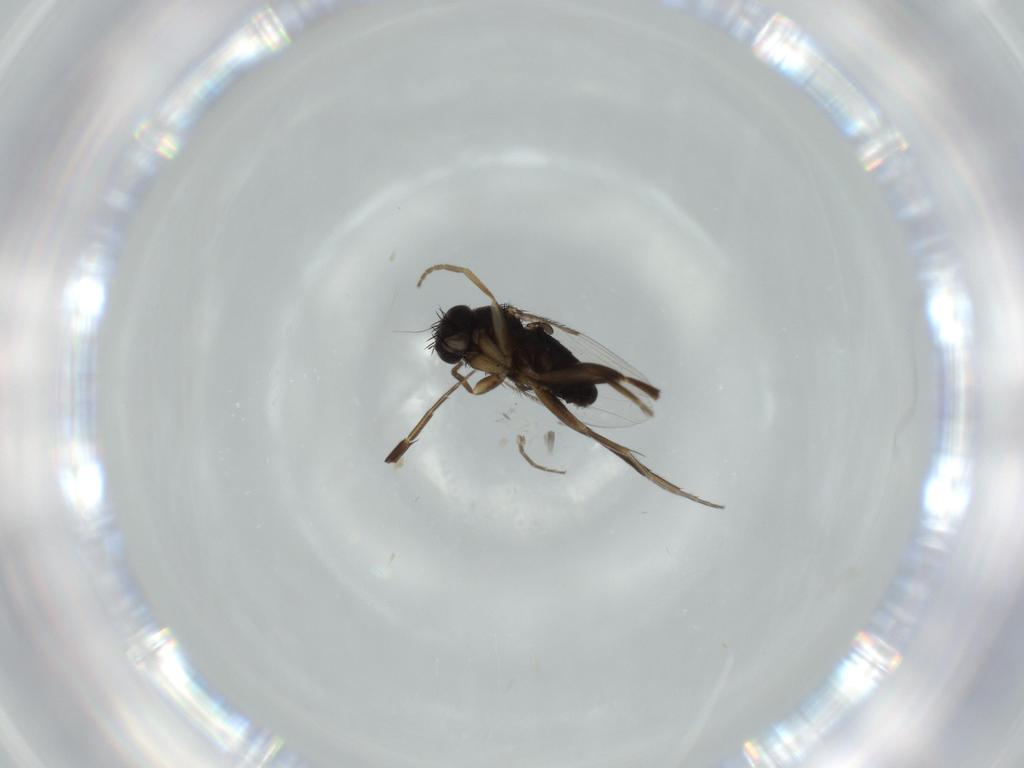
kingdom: Animalia
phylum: Arthropoda
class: Insecta
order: Diptera
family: Phoridae
